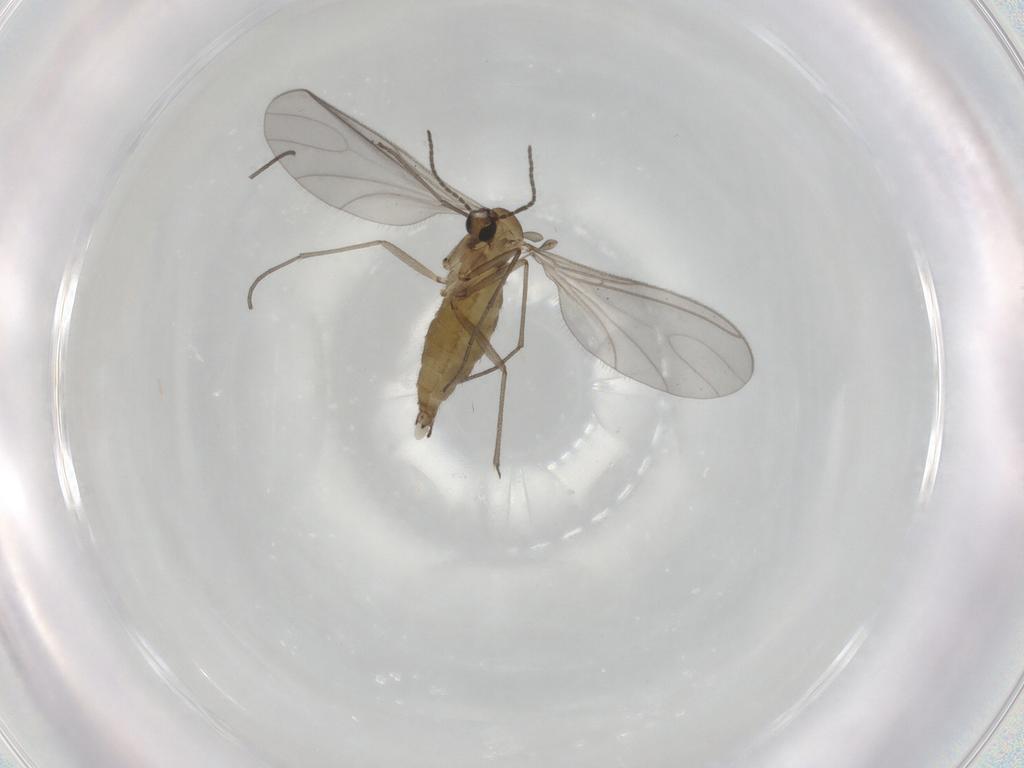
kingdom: Animalia
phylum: Arthropoda
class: Insecta
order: Diptera
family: Sciaridae
